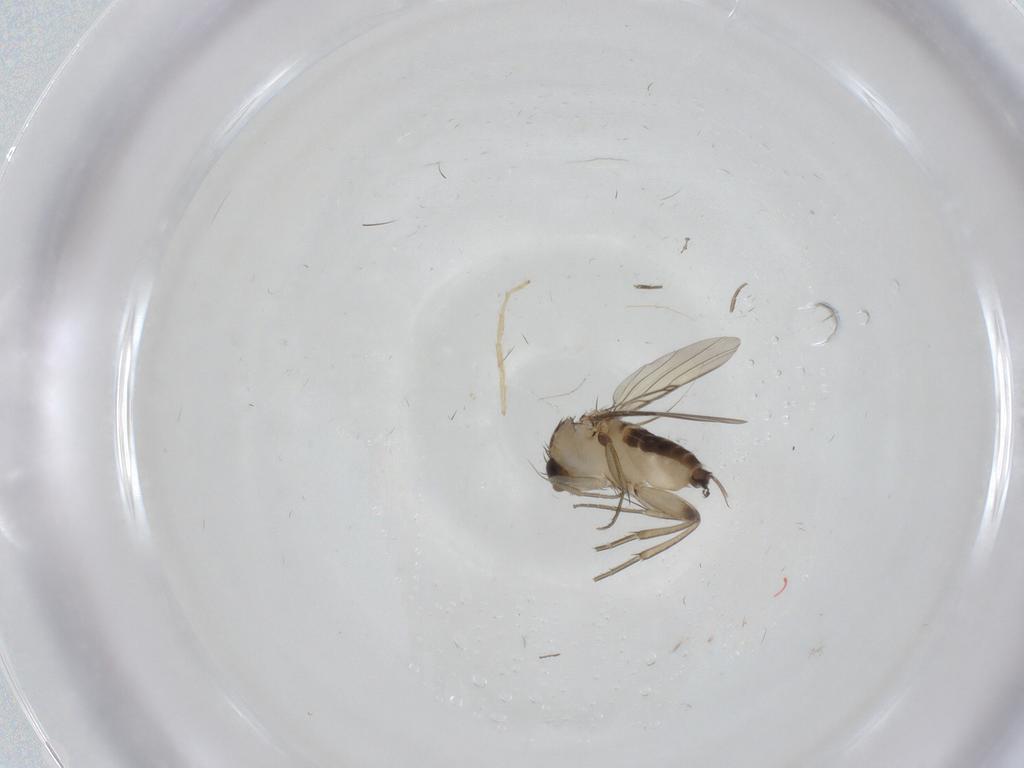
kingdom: Animalia
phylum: Arthropoda
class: Insecta
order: Diptera
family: Phoridae
